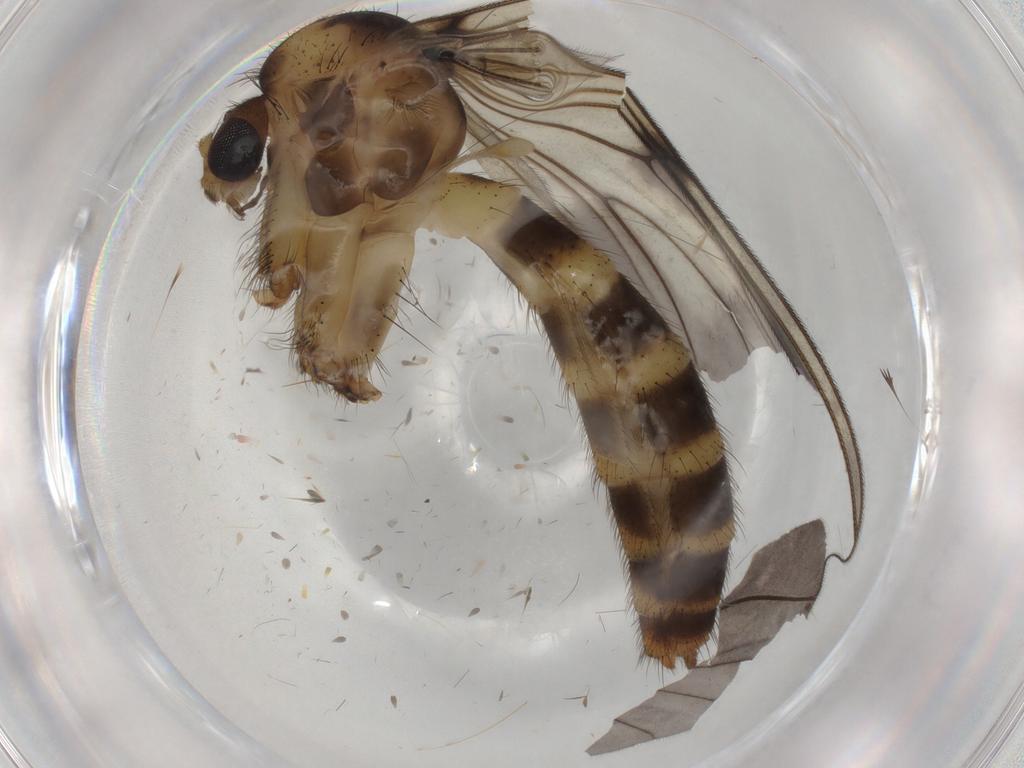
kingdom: Animalia
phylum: Arthropoda
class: Insecta
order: Diptera
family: Mycetophilidae
